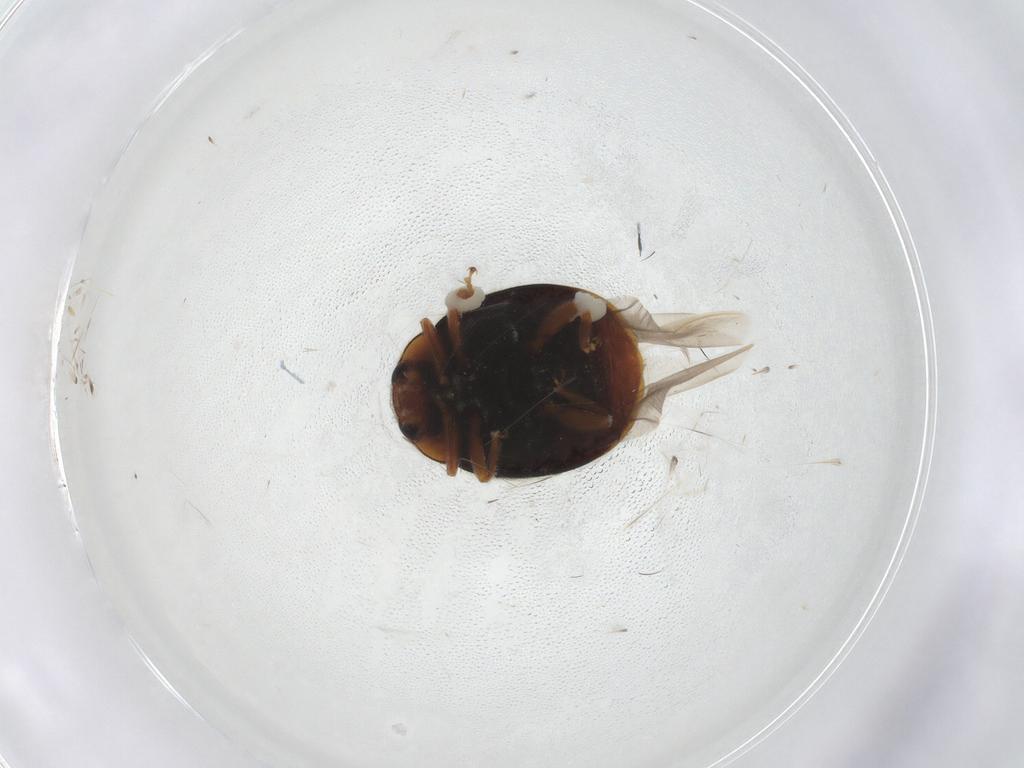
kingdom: Animalia
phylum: Arthropoda
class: Insecta
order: Coleoptera
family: Coccinellidae
